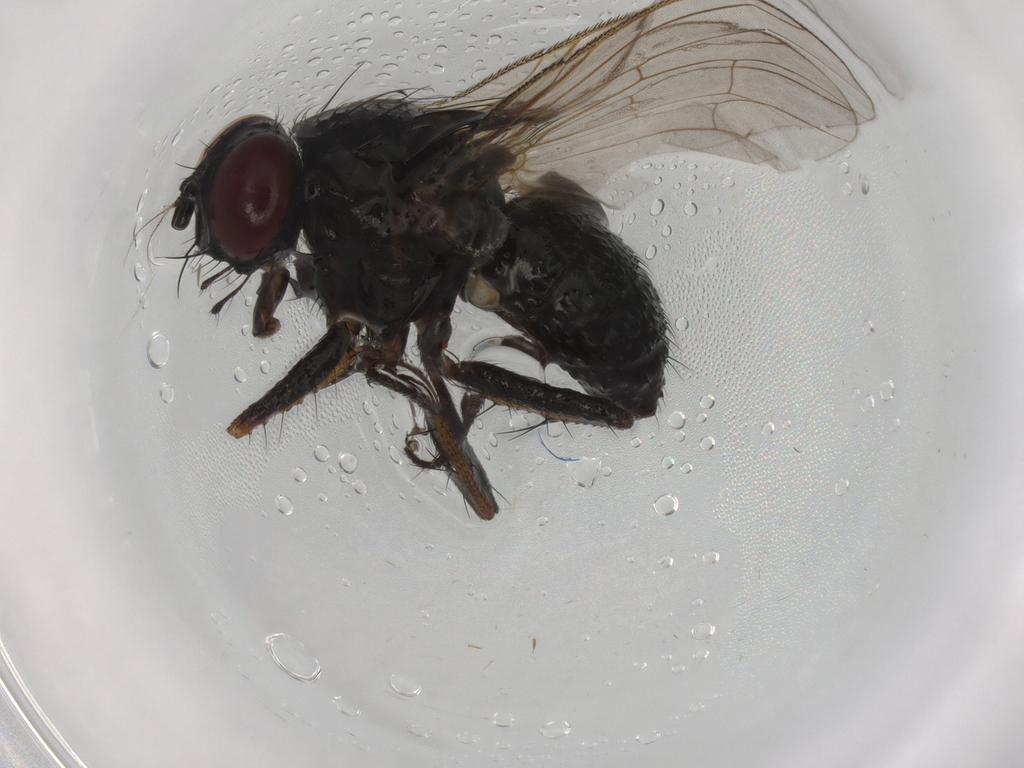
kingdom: Animalia
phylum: Arthropoda
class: Insecta
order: Diptera
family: Muscidae
